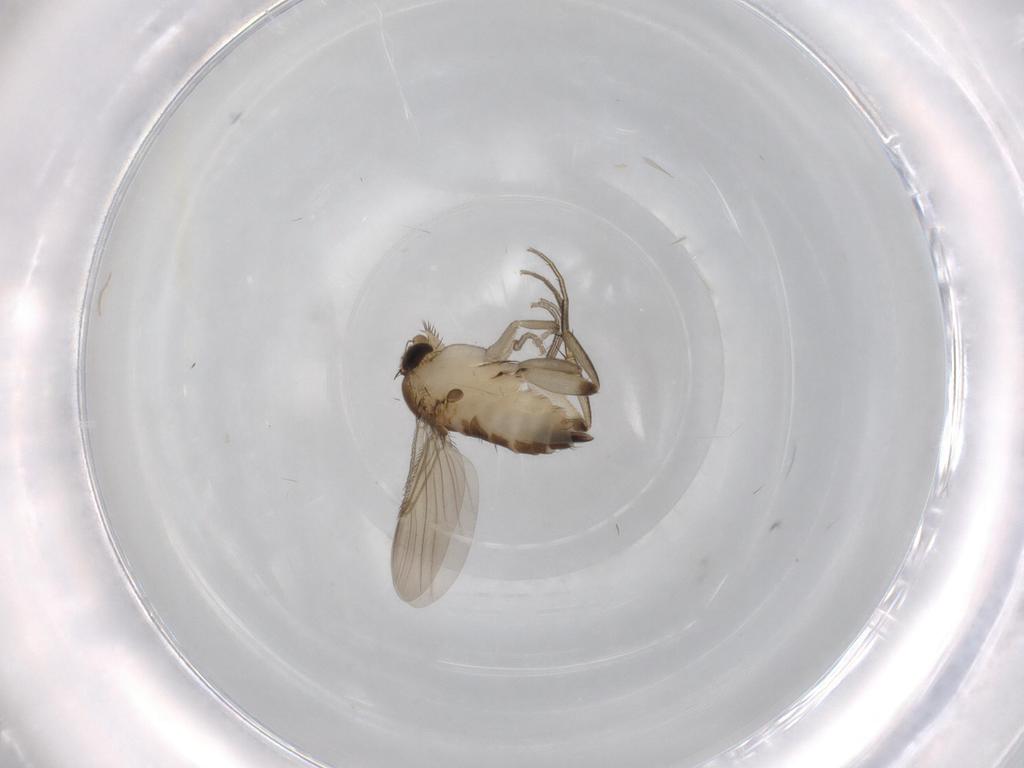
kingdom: Animalia
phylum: Arthropoda
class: Insecta
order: Diptera
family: Phoridae
